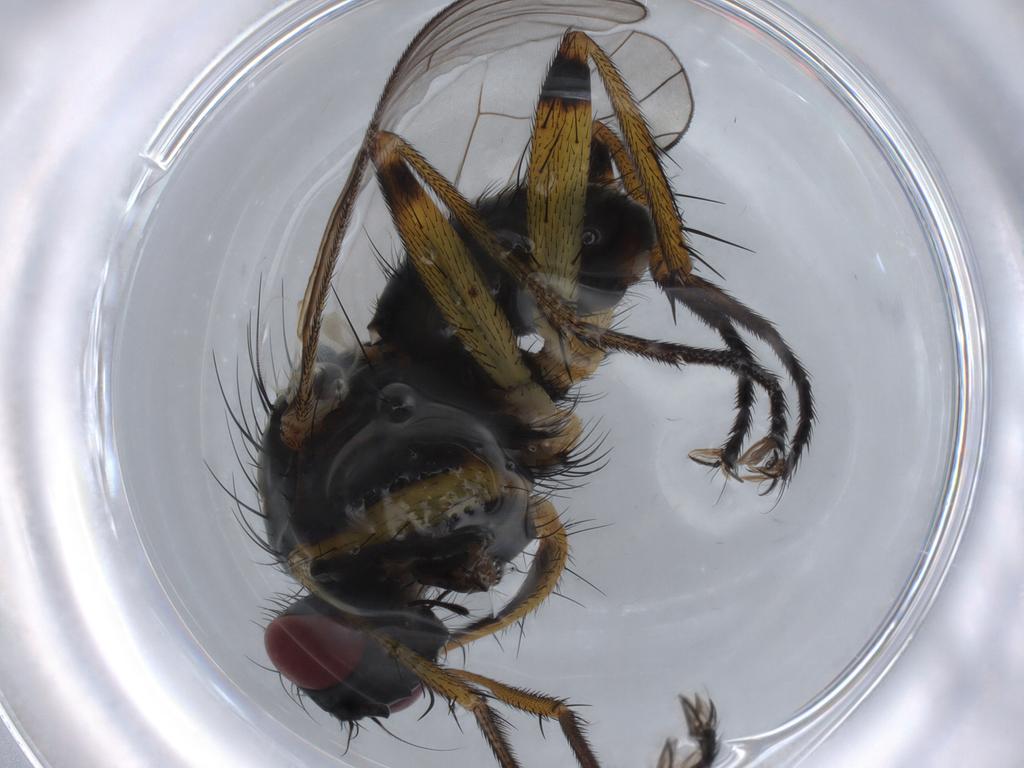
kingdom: Animalia
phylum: Arthropoda
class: Insecta
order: Diptera
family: Muscidae
